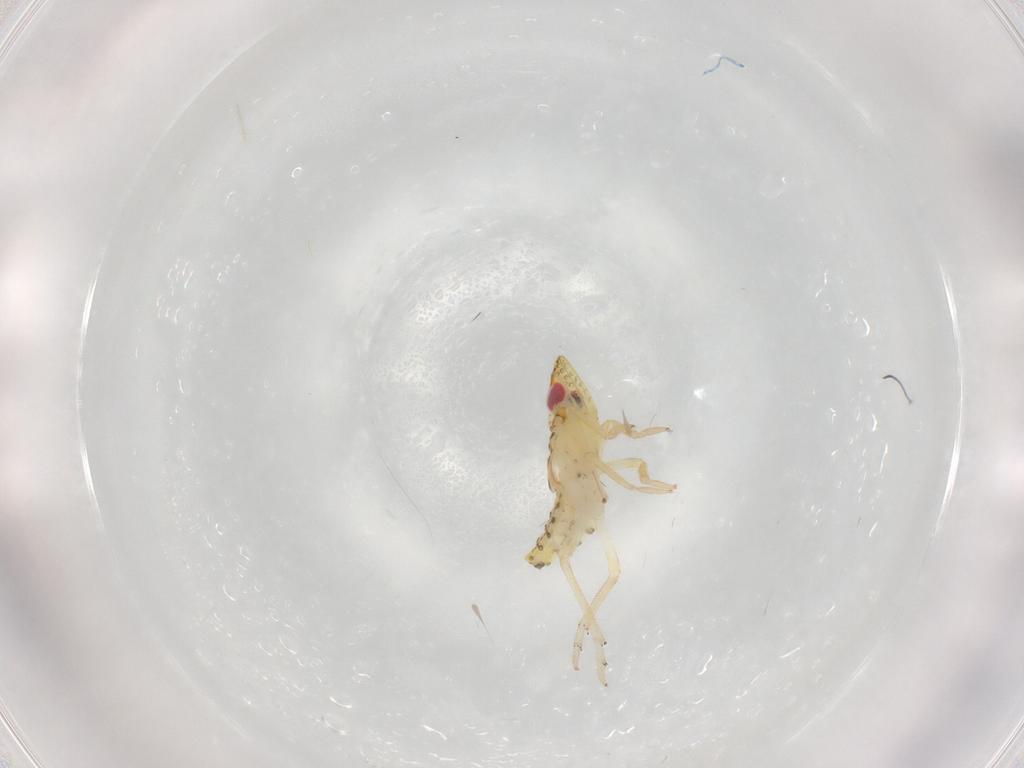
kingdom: Animalia
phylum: Arthropoda
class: Insecta
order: Hemiptera
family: Tropiduchidae
